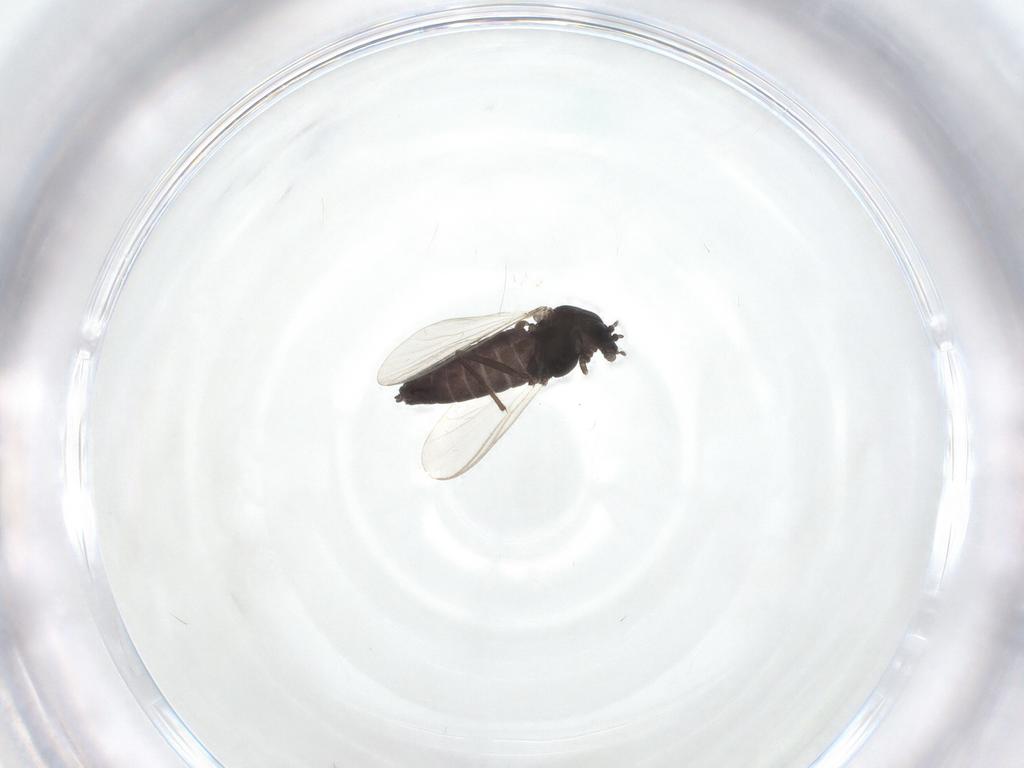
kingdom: Animalia
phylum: Arthropoda
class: Insecta
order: Diptera
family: Chironomidae
